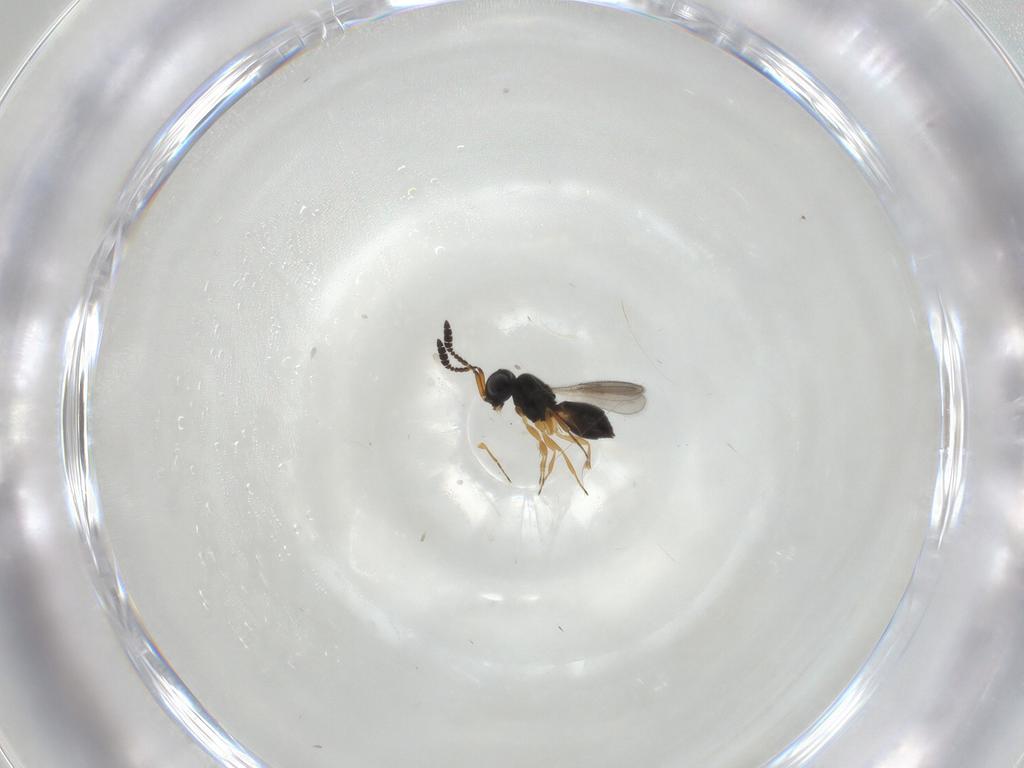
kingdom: Animalia
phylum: Arthropoda
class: Insecta
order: Hymenoptera
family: Scelionidae
